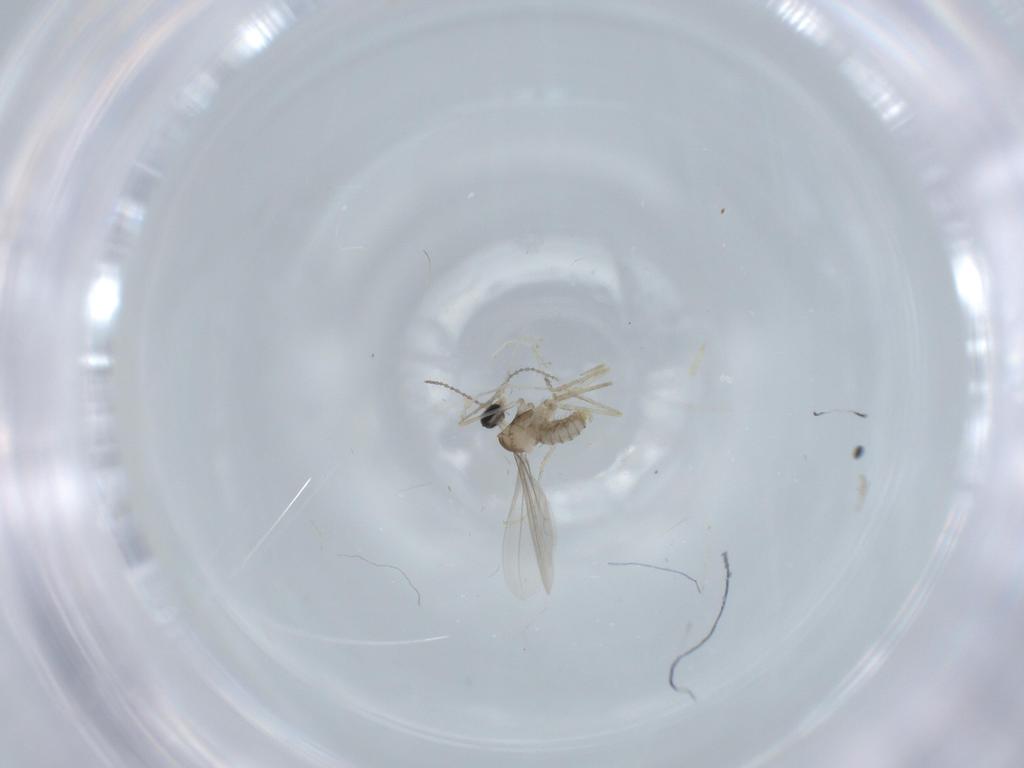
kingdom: Animalia
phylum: Arthropoda
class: Insecta
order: Diptera
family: Cecidomyiidae
